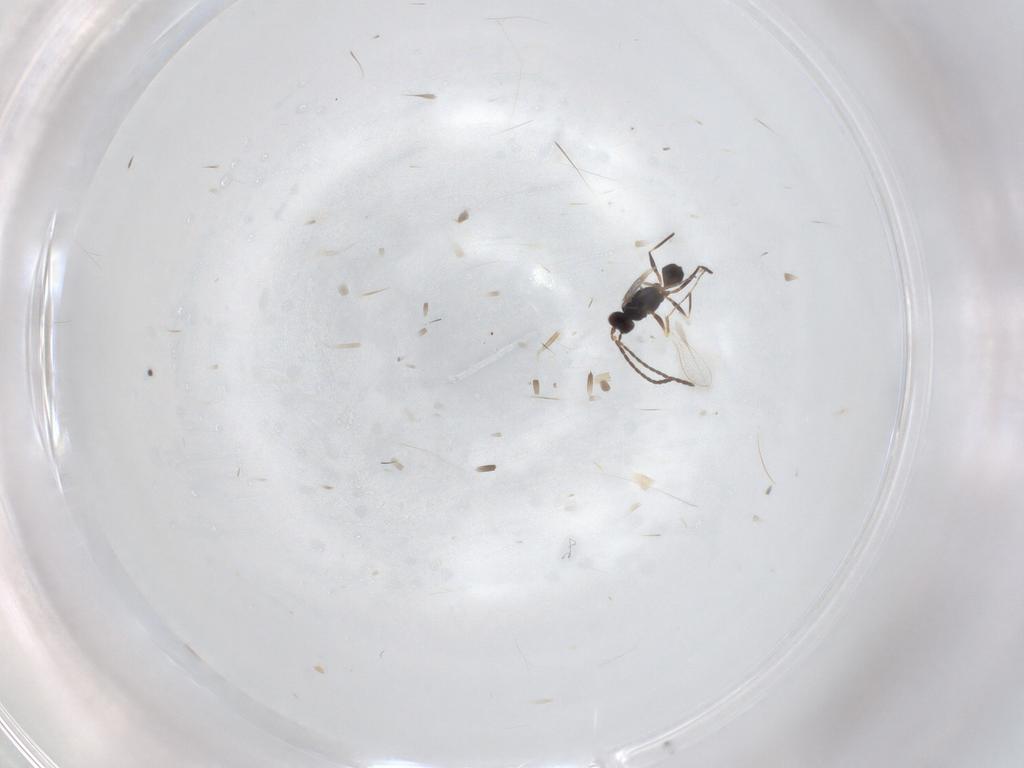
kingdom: Animalia
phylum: Arthropoda
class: Insecta
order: Hymenoptera
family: Mymaridae
